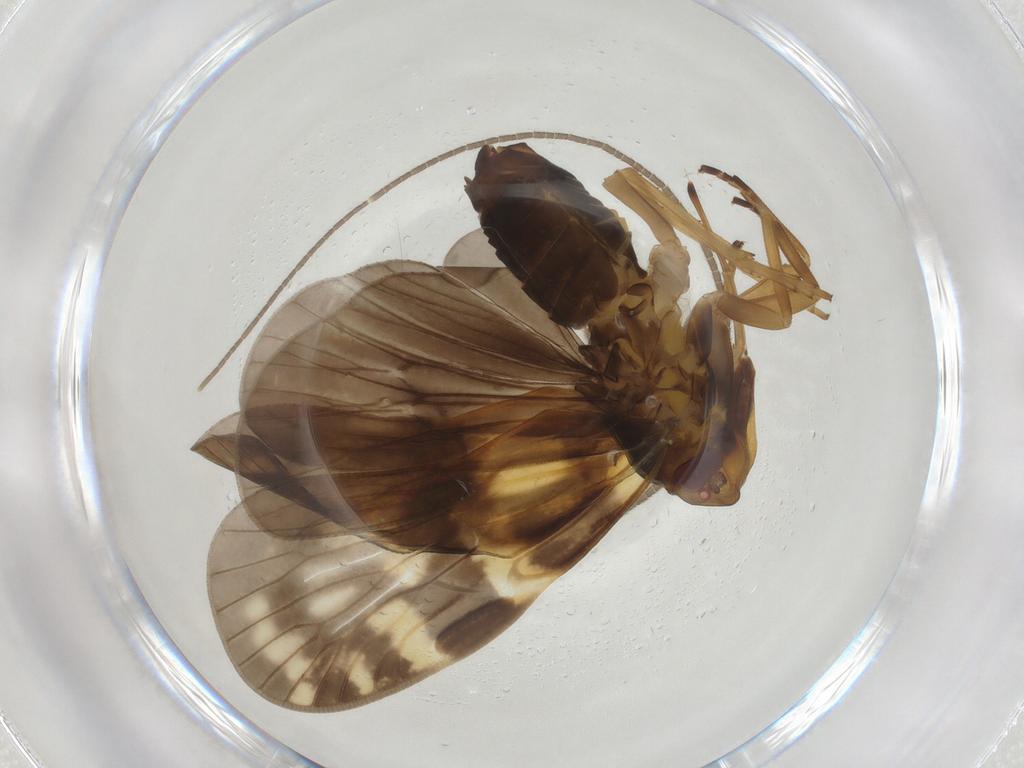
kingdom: Animalia
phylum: Arthropoda
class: Insecta
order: Hemiptera
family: Cixiidae
